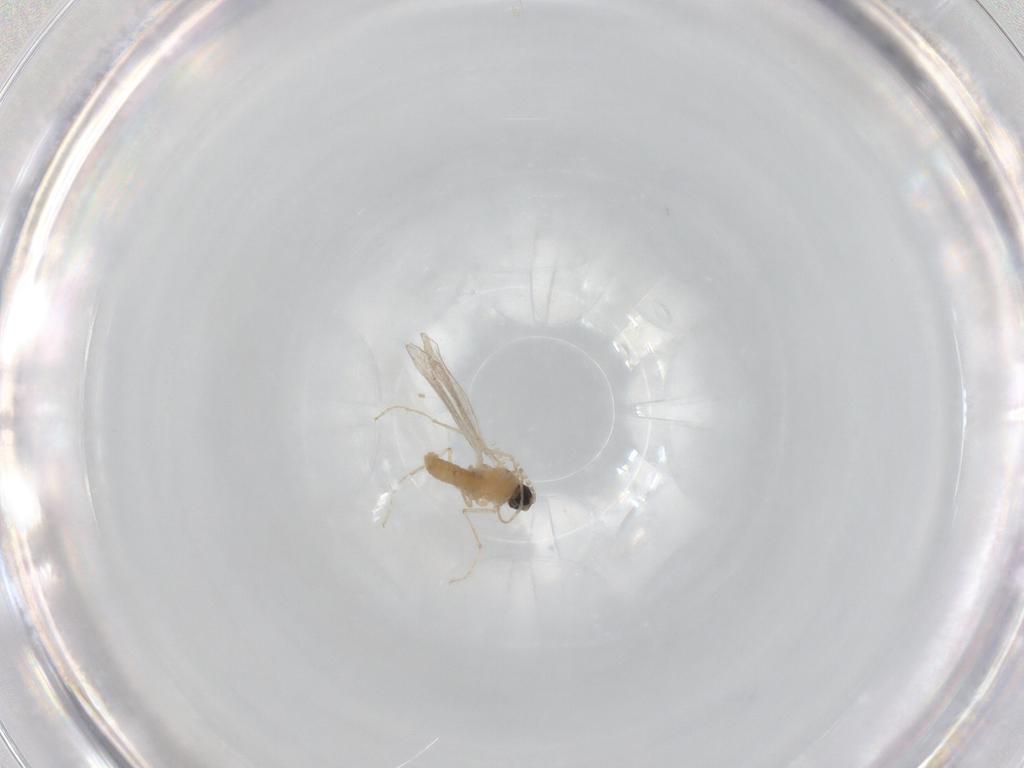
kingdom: Animalia
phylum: Arthropoda
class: Insecta
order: Diptera
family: Cecidomyiidae
